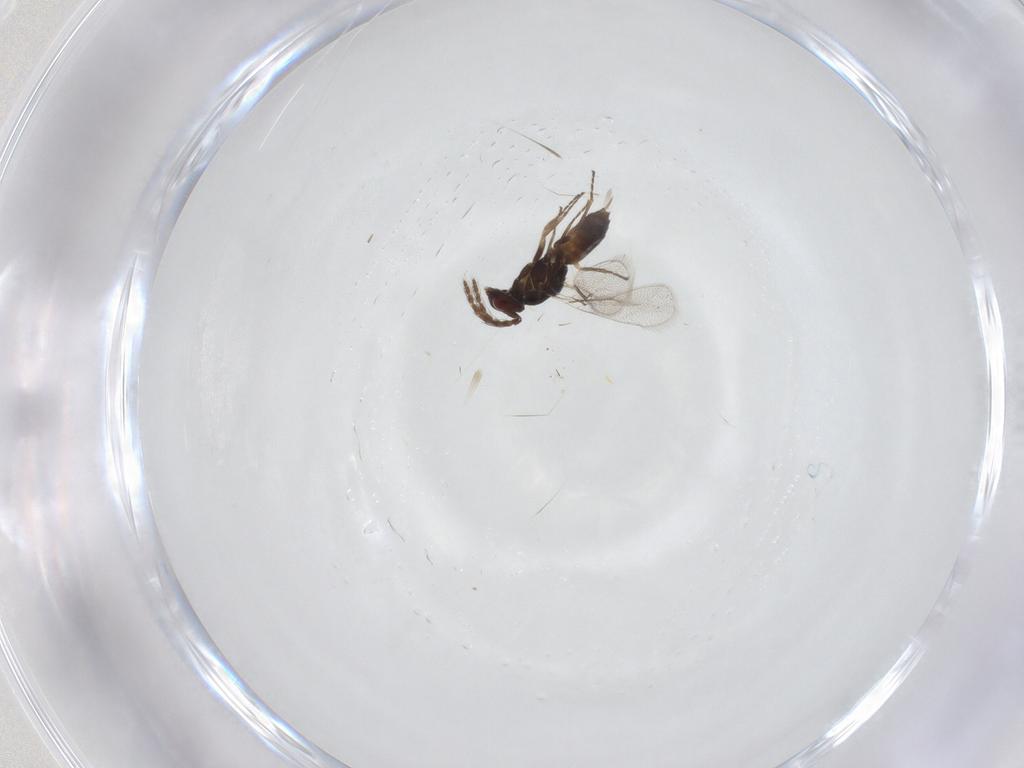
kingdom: Animalia
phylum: Arthropoda
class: Insecta
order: Hymenoptera
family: Eulophidae
